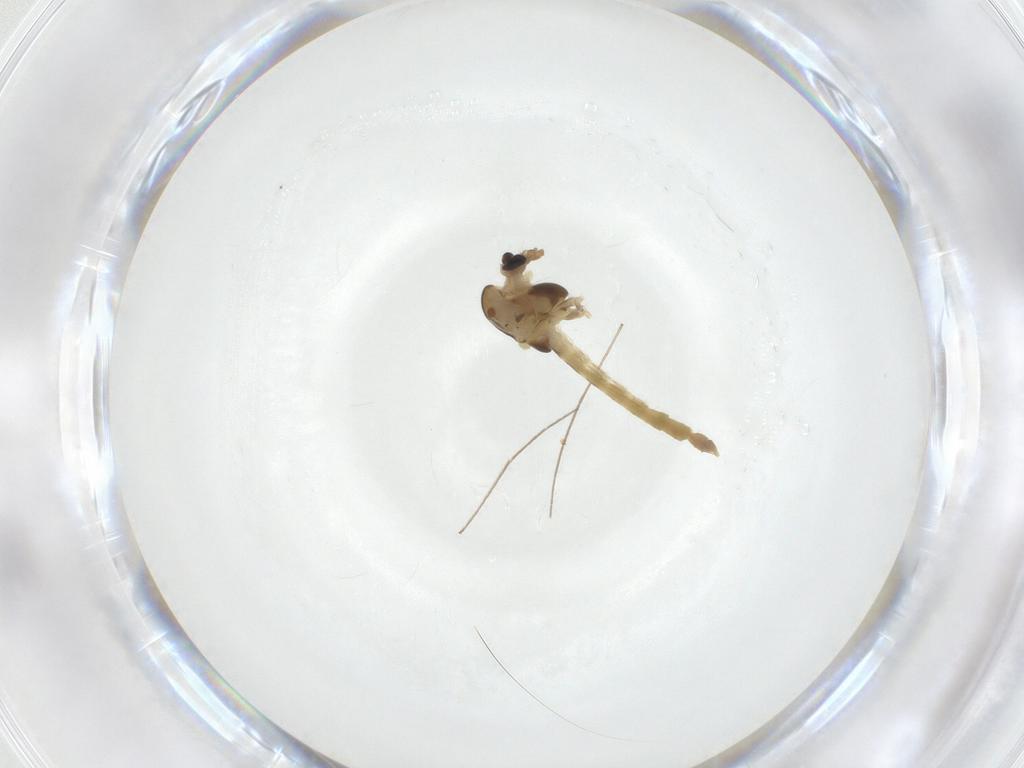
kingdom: Animalia
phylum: Arthropoda
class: Insecta
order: Diptera
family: Chironomidae
